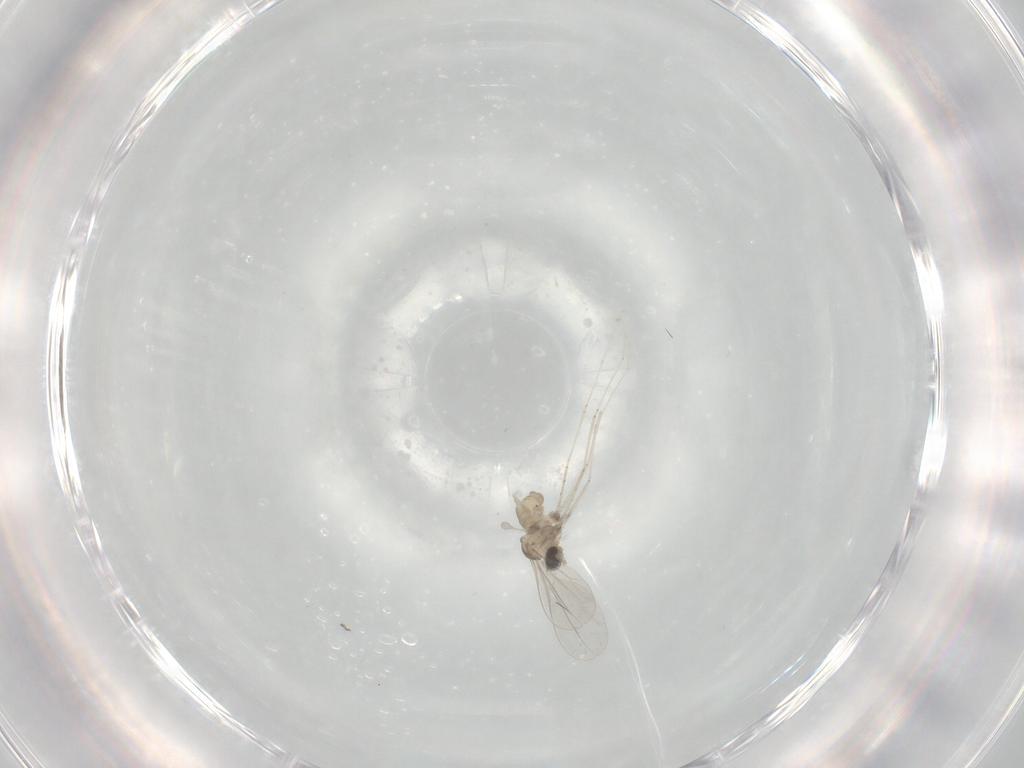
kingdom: Animalia
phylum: Arthropoda
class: Insecta
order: Diptera
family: Cecidomyiidae
